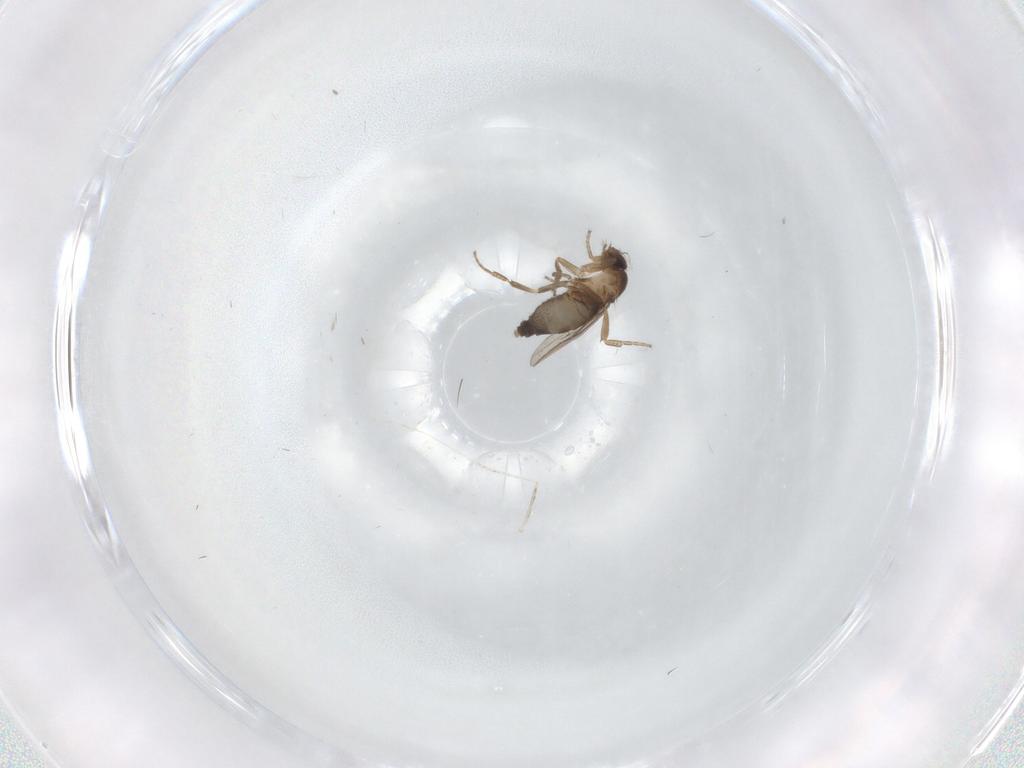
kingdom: Animalia
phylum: Arthropoda
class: Insecta
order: Diptera
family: Phoridae
